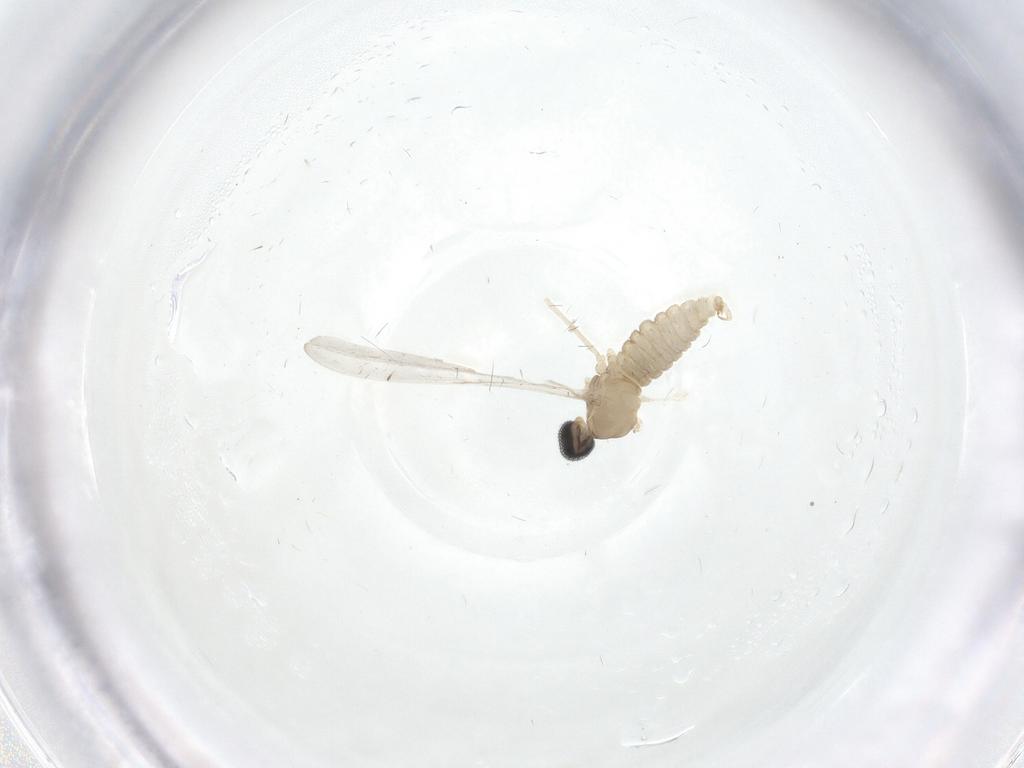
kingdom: Animalia
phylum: Arthropoda
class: Insecta
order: Diptera
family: Cecidomyiidae
